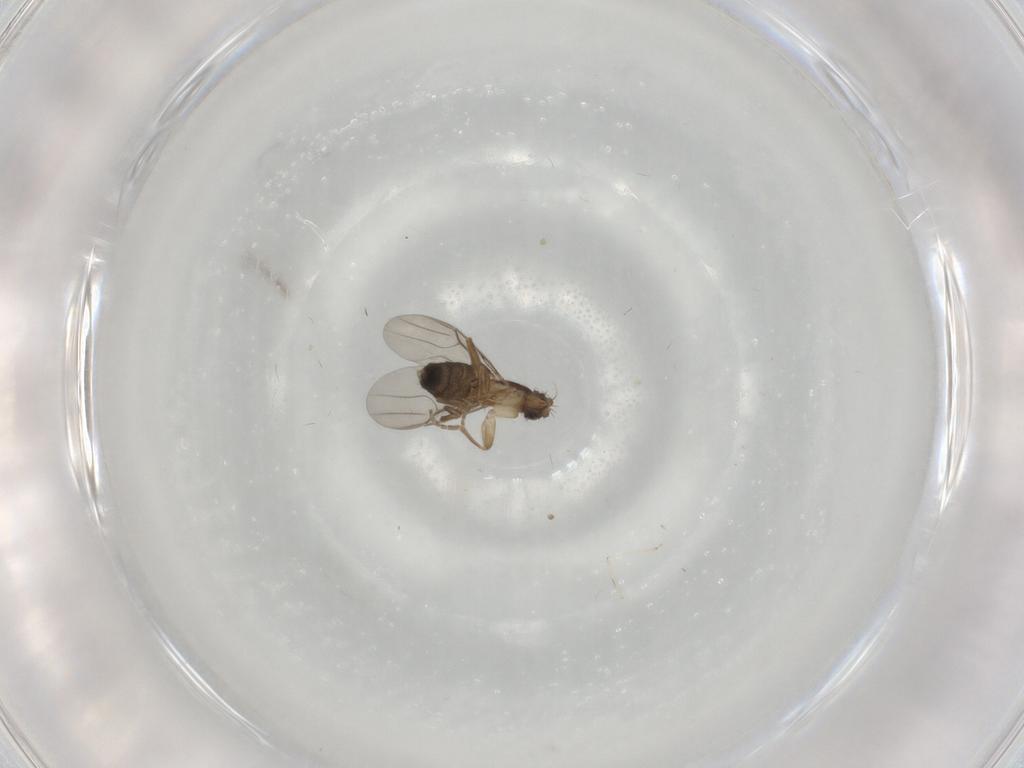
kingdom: Animalia
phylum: Arthropoda
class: Insecta
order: Diptera
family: Phoridae
